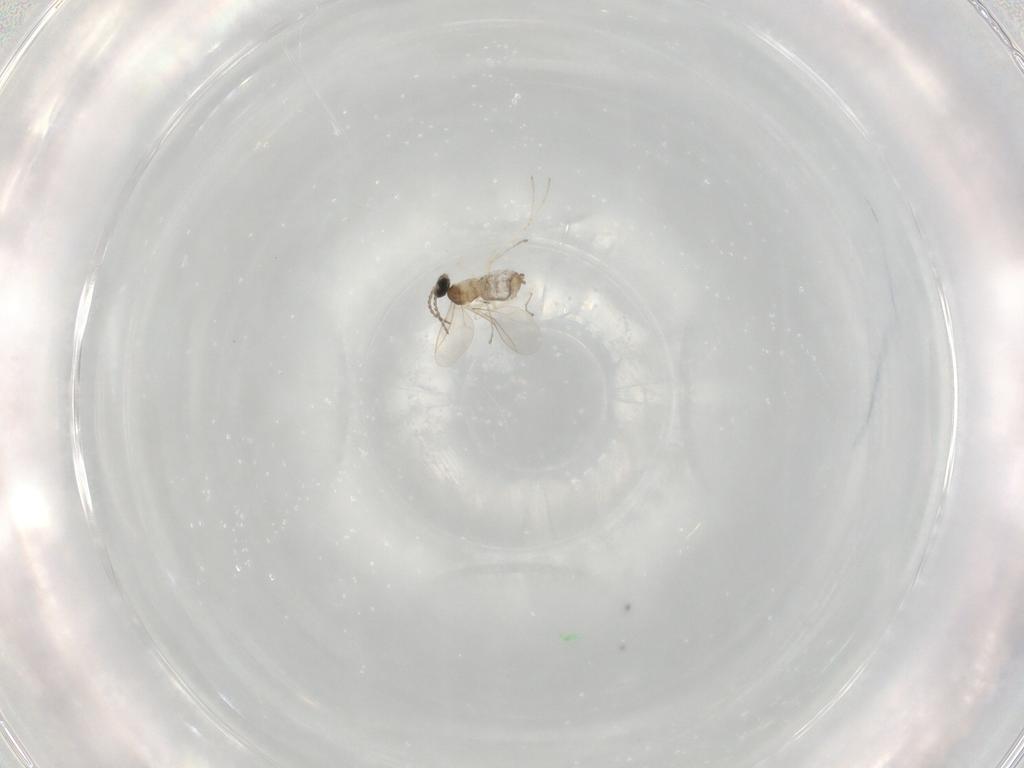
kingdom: Animalia
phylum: Arthropoda
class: Insecta
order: Diptera
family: Cecidomyiidae
